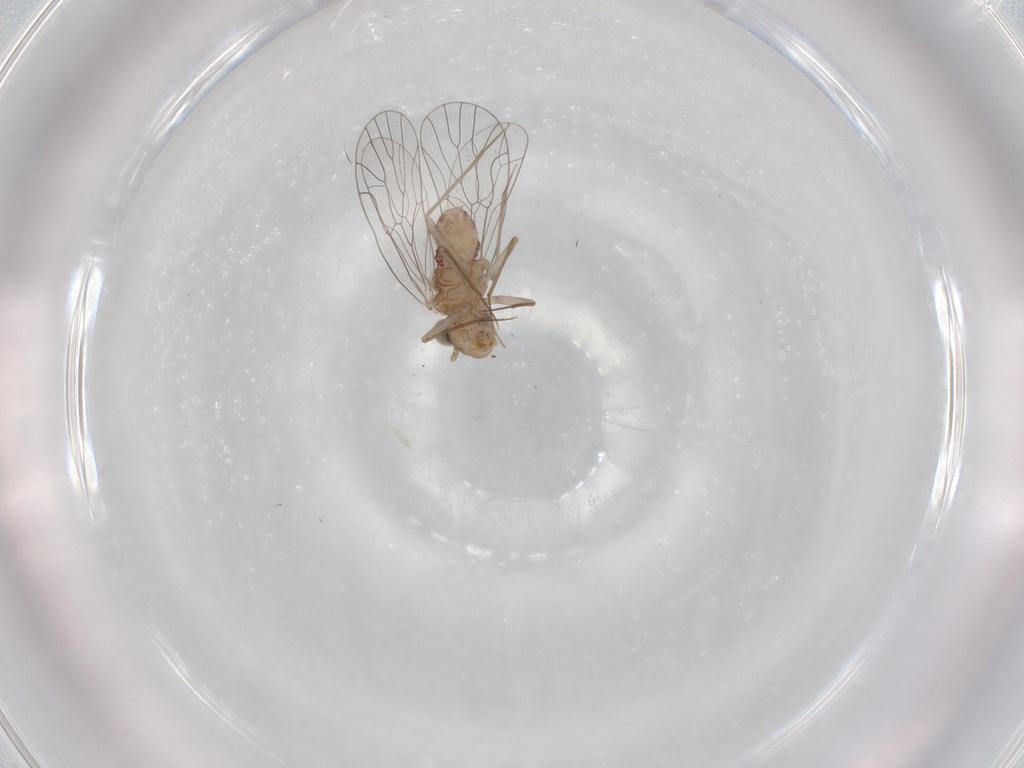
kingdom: Animalia
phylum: Arthropoda
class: Insecta
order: Psocodea
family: Amphientomidae
